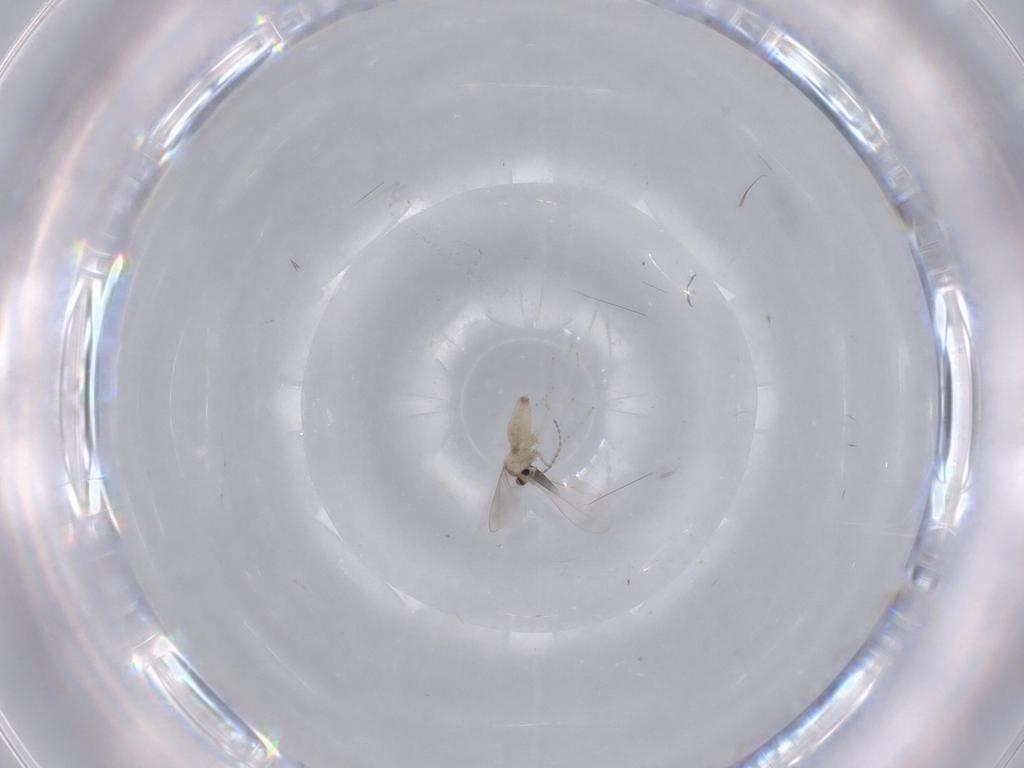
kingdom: Animalia
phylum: Arthropoda
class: Insecta
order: Diptera
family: Cecidomyiidae
